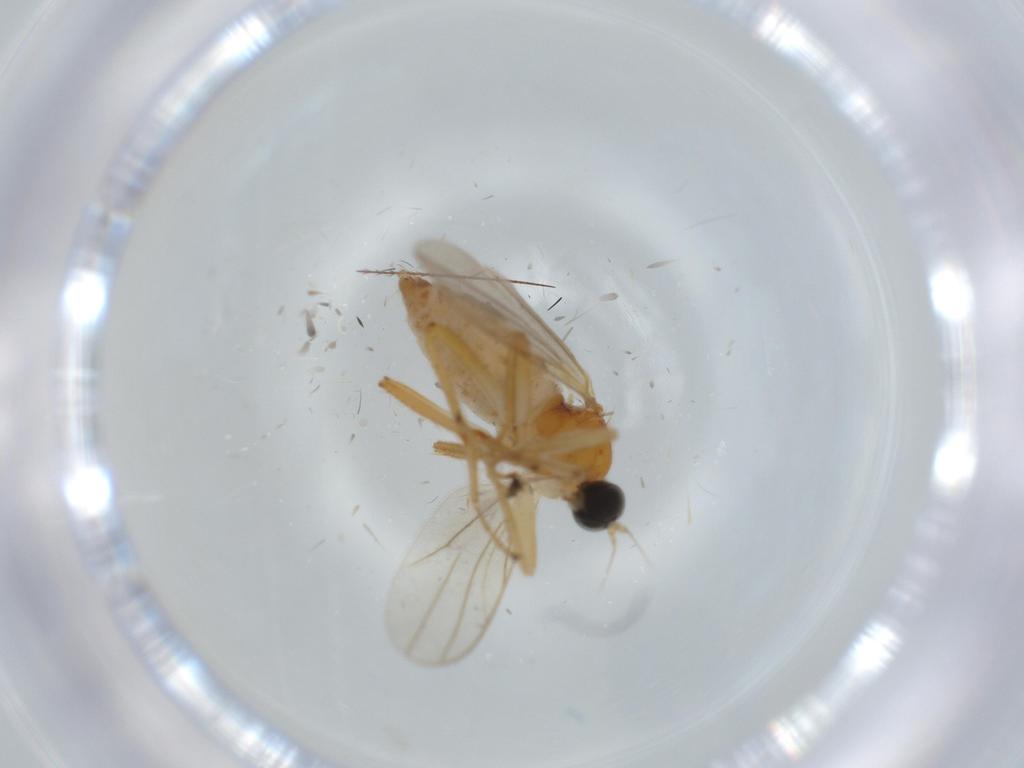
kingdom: Animalia
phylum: Arthropoda
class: Insecta
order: Diptera
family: Hybotidae
